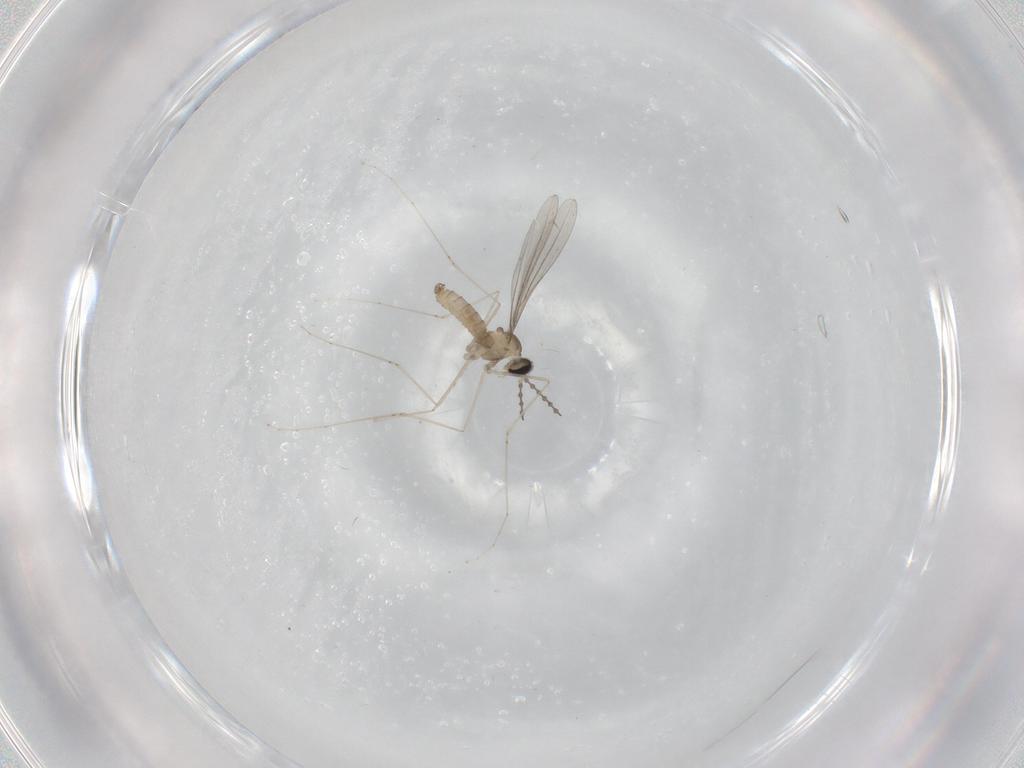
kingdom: Animalia
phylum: Arthropoda
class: Insecta
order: Diptera
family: Cecidomyiidae
